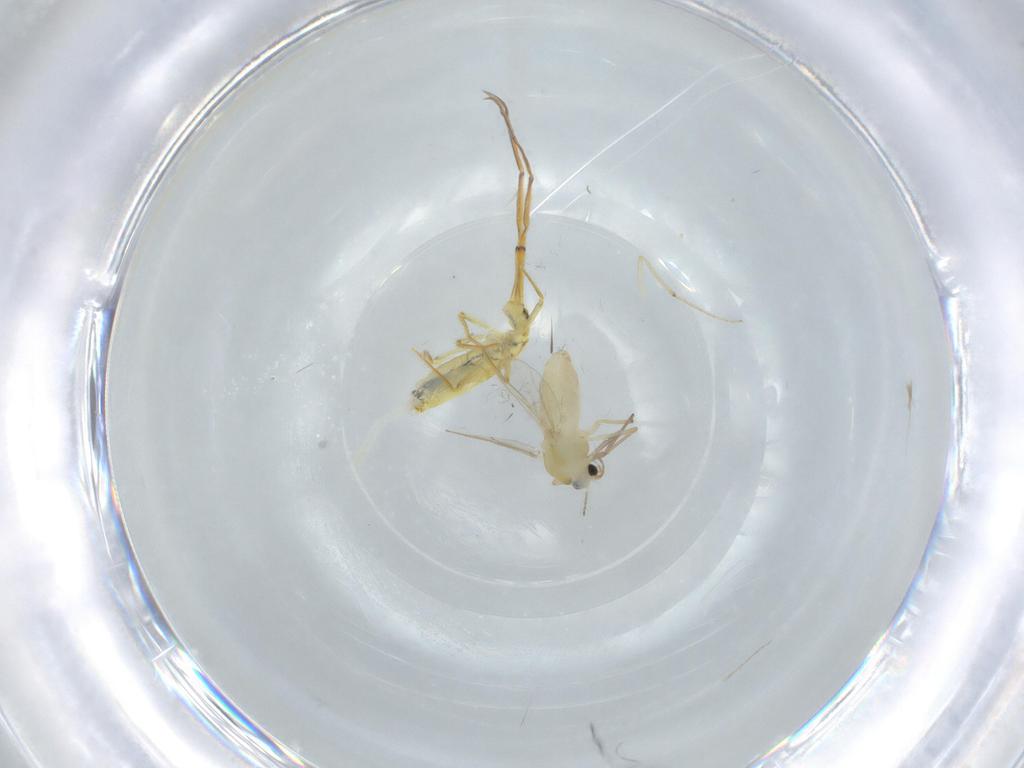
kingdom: Animalia
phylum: Arthropoda
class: Insecta
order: Diptera
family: Chironomidae
